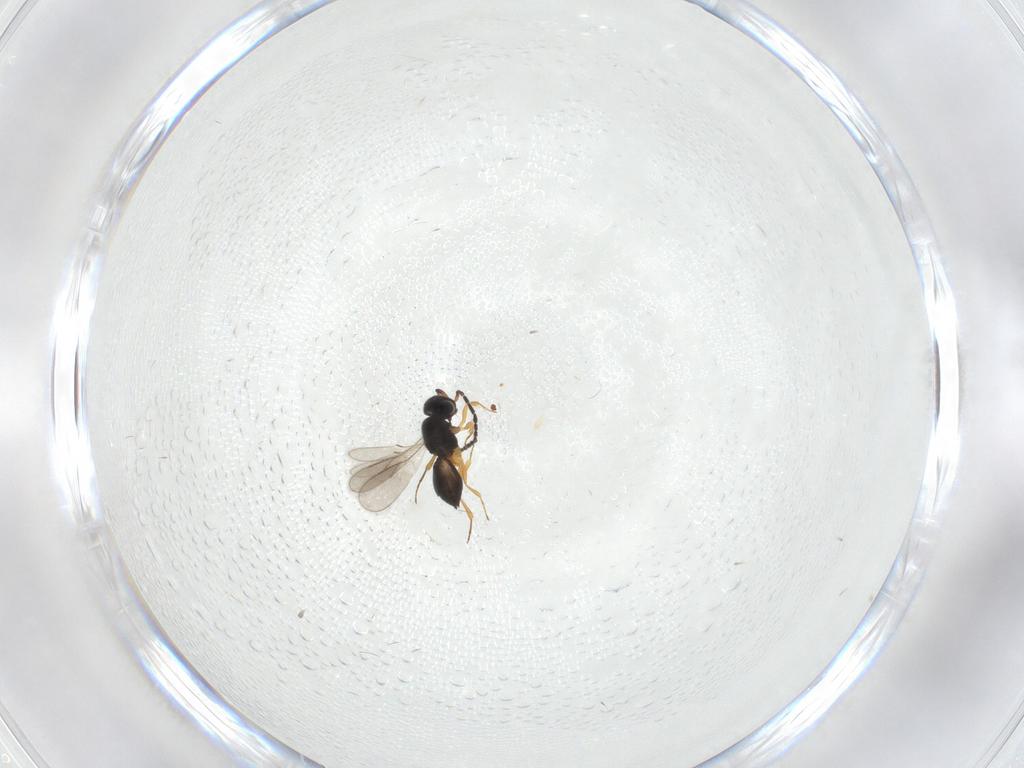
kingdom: Animalia
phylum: Arthropoda
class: Insecta
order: Hymenoptera
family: Scelionidae
